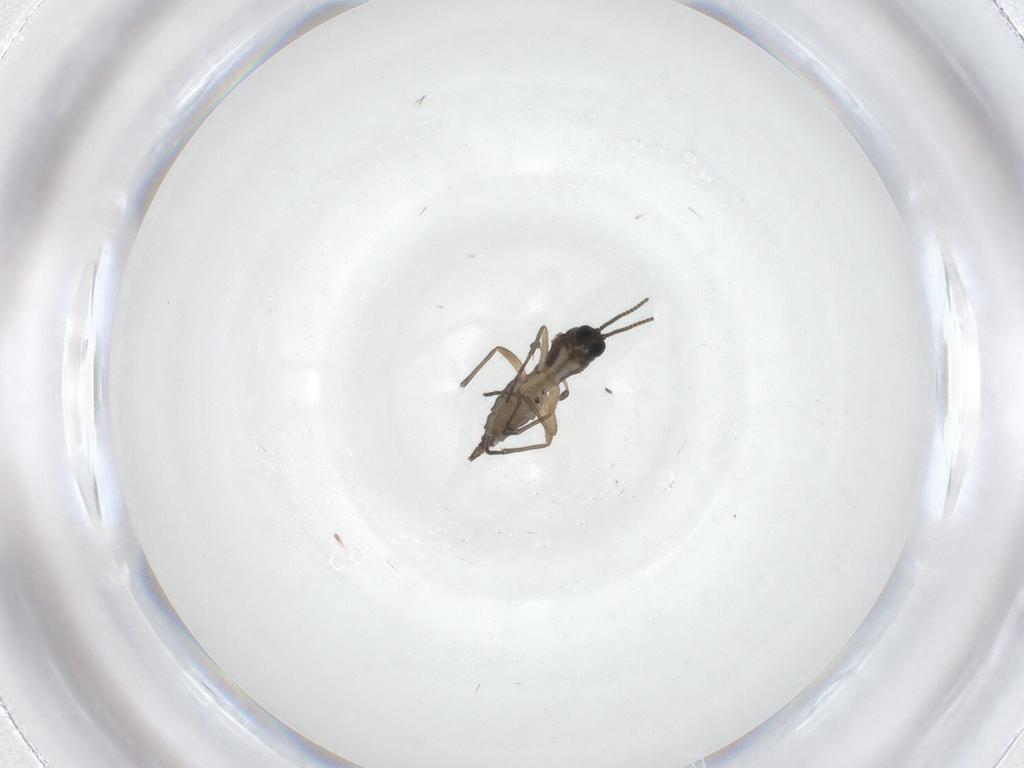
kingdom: Animalia
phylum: Arthropoda
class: Insecta
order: Diptera
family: Sciaridae
